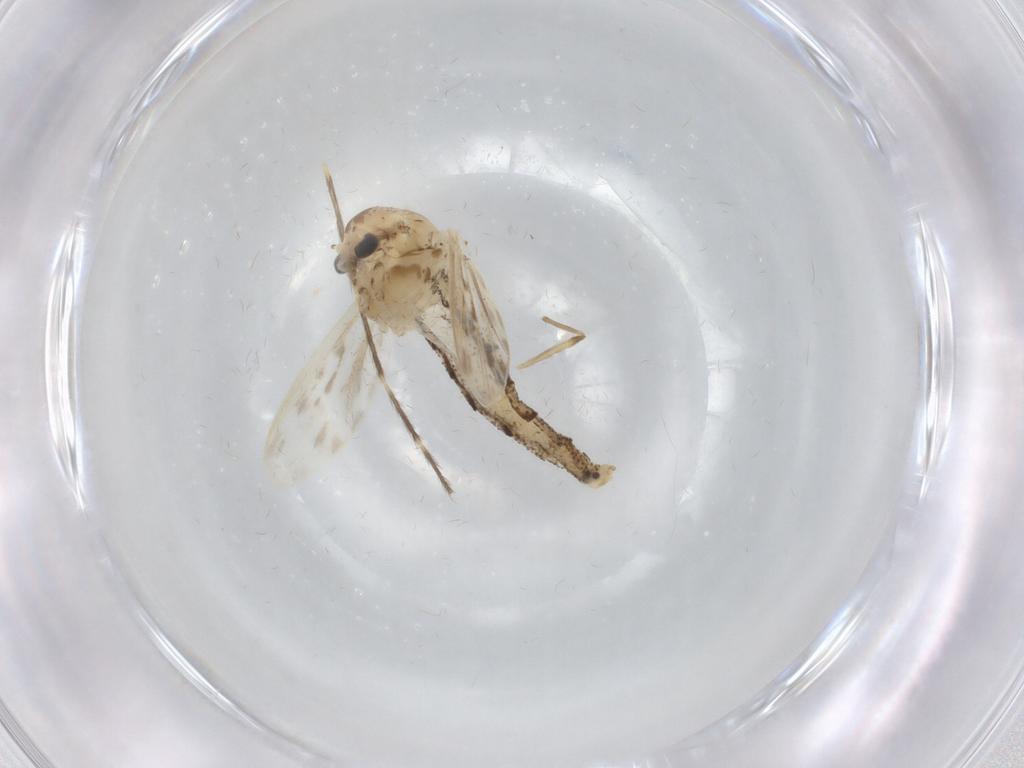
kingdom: Animalia
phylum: Arthropoda
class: Insecta
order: Diptera
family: Chaoboridae
